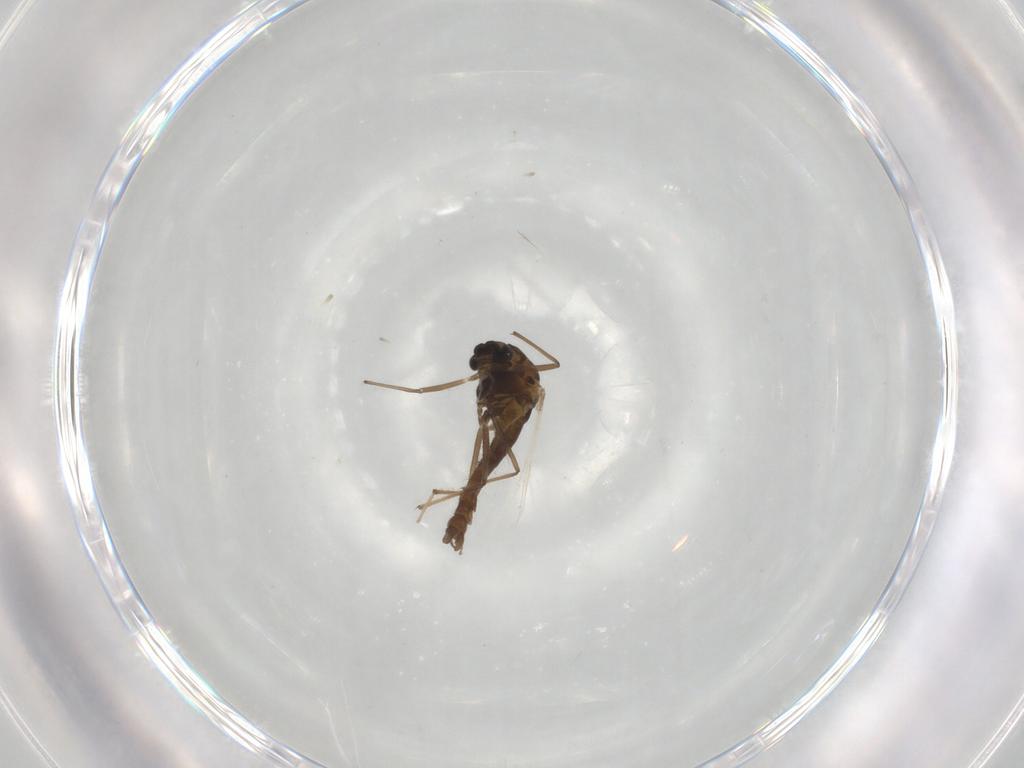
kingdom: Animalia
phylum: Arthropoda
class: Insecta
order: Diptera
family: Chironomidae
